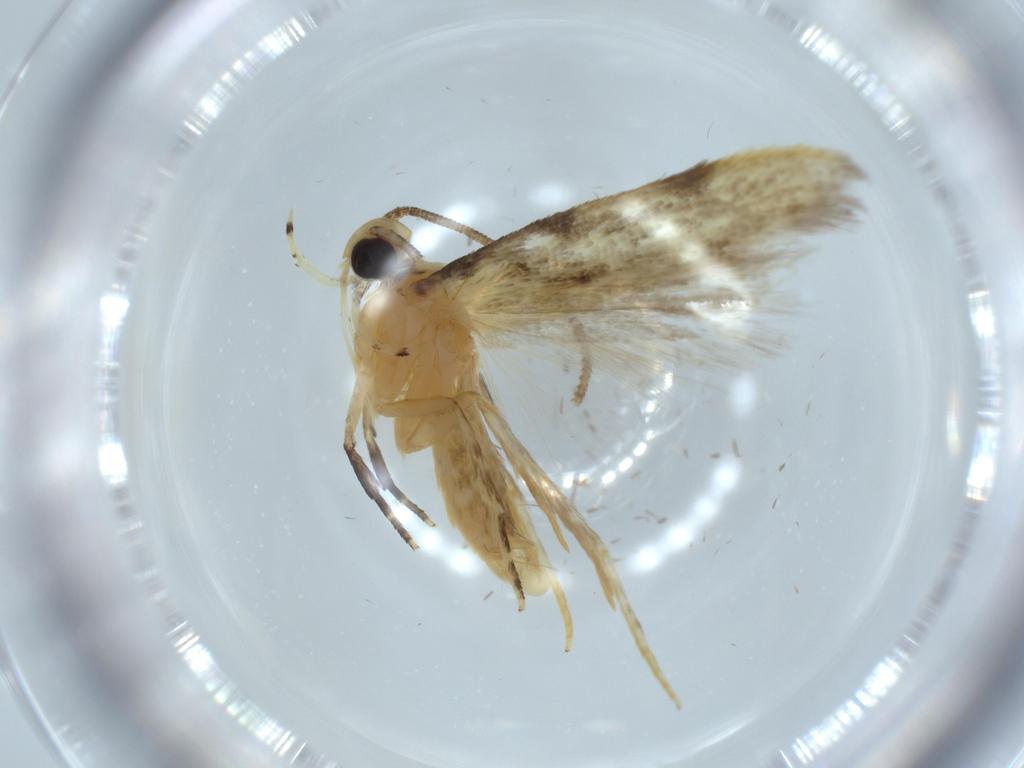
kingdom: Animalia
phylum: Arthropoda
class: Insecta
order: Lepidoptera
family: Autostichidae
